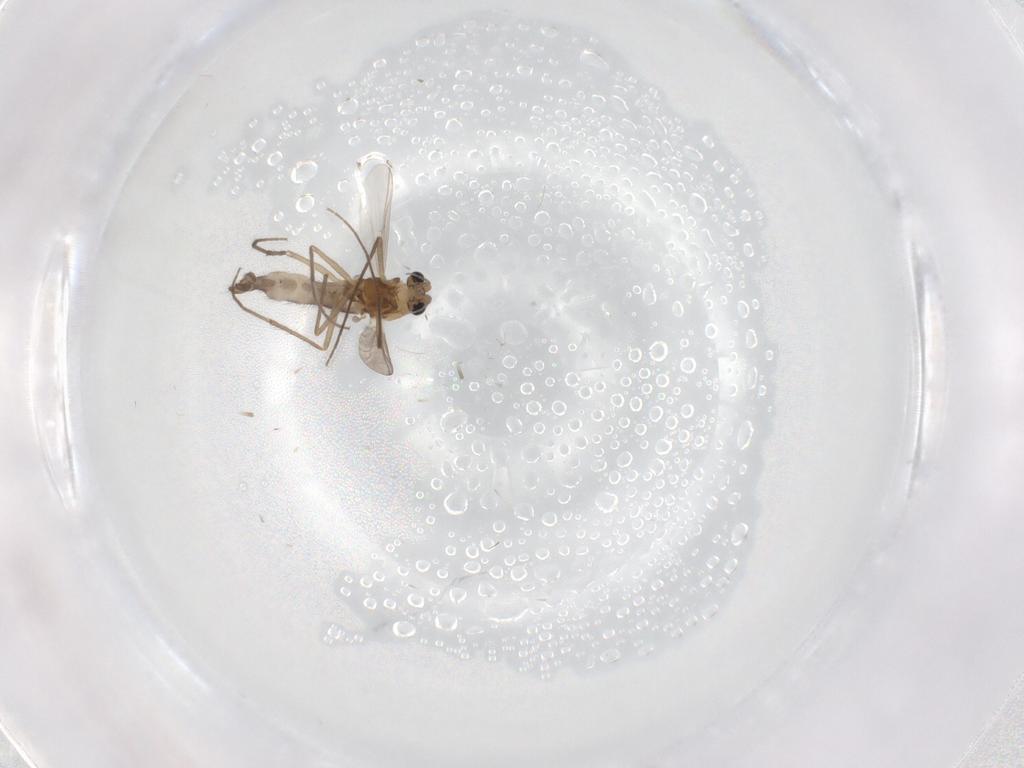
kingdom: Animalia
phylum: Arthropoda
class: Insecta
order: Diptera
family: Chironomidae
